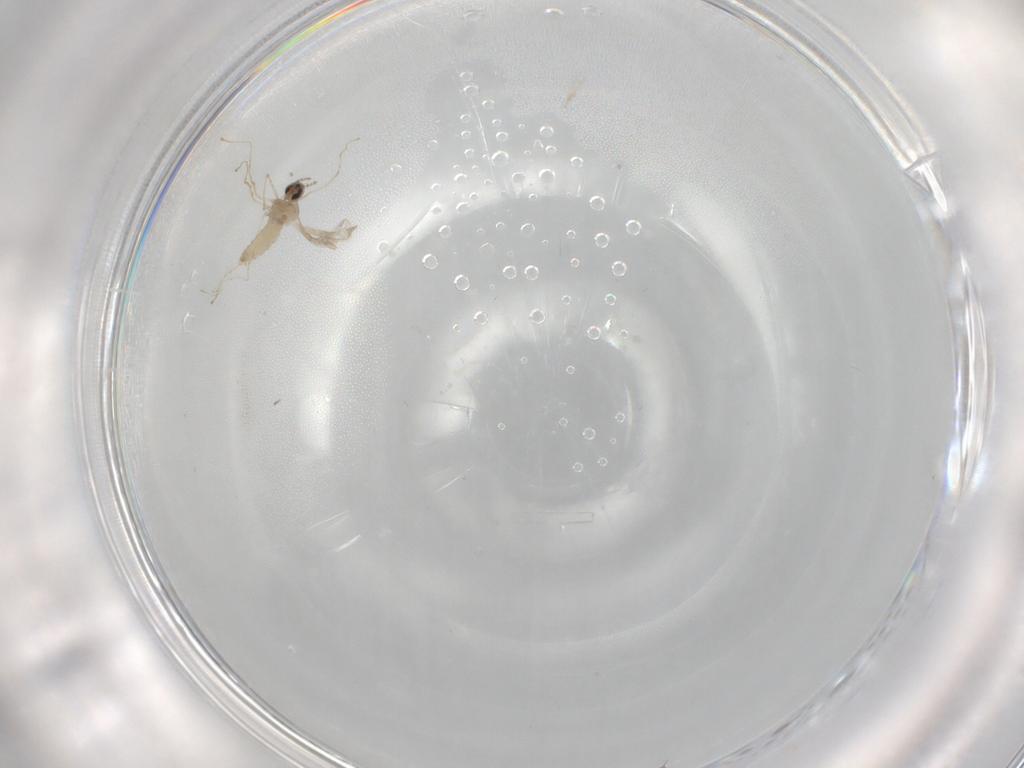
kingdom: Animalia
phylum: Arthropoda
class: Insecta
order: Diptera
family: Cecidomyiidae
